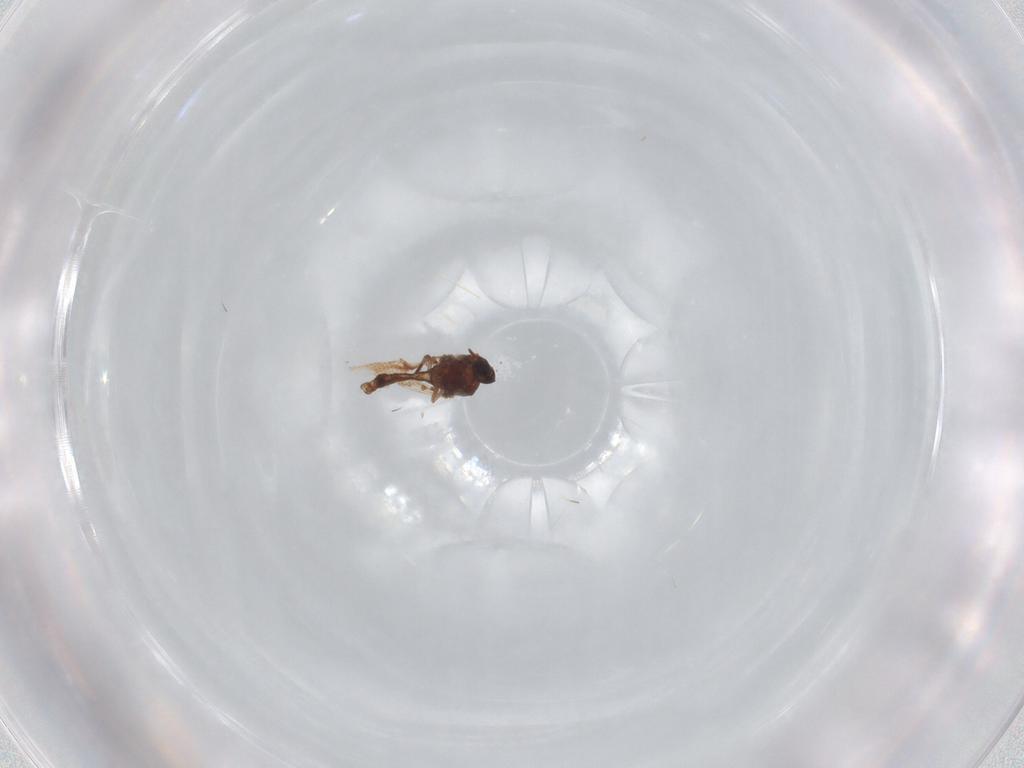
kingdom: Animalia
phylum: Arthropoda
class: Insecta
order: Diptera
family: Ceratopogonidae
